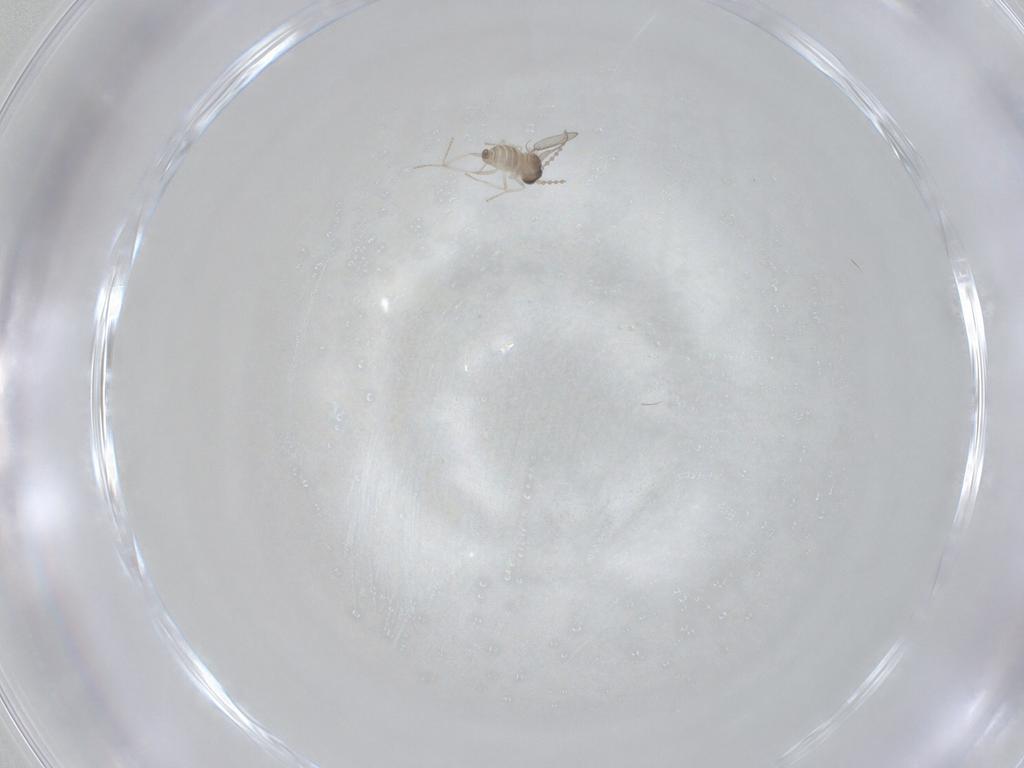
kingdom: Animalia
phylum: Arthropoda
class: Insecta
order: Diptera
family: Cecidomyiidae
